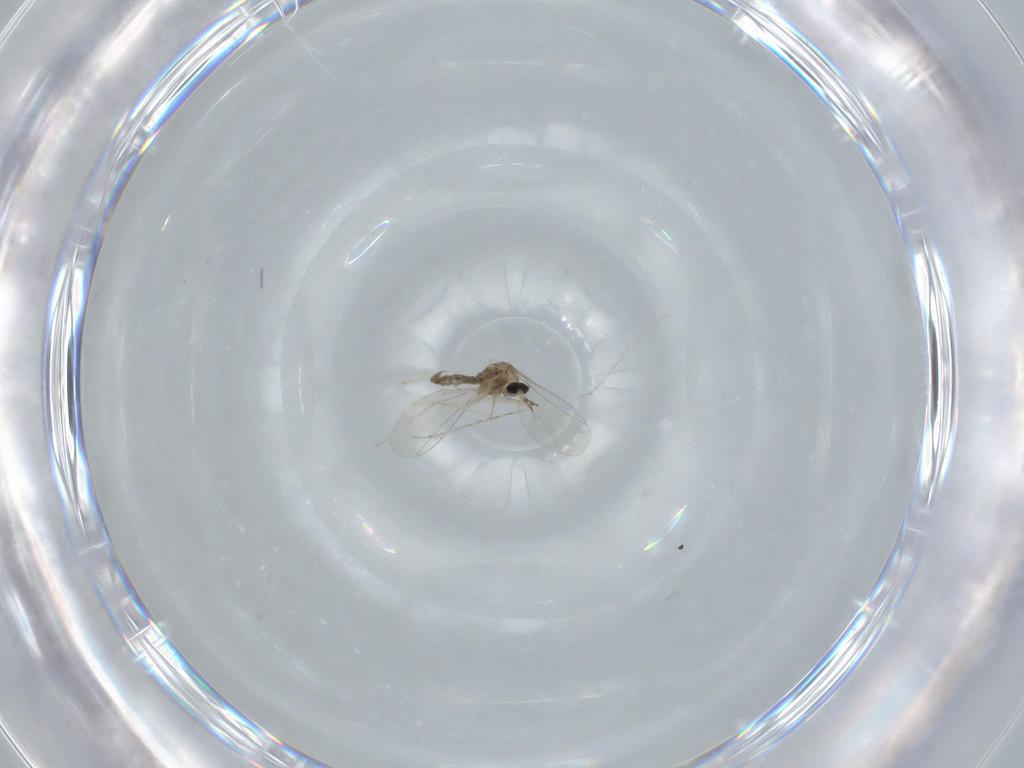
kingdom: Animalia
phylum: Arthropoda
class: Insecta
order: Diptera
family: Cecidomyiidae
